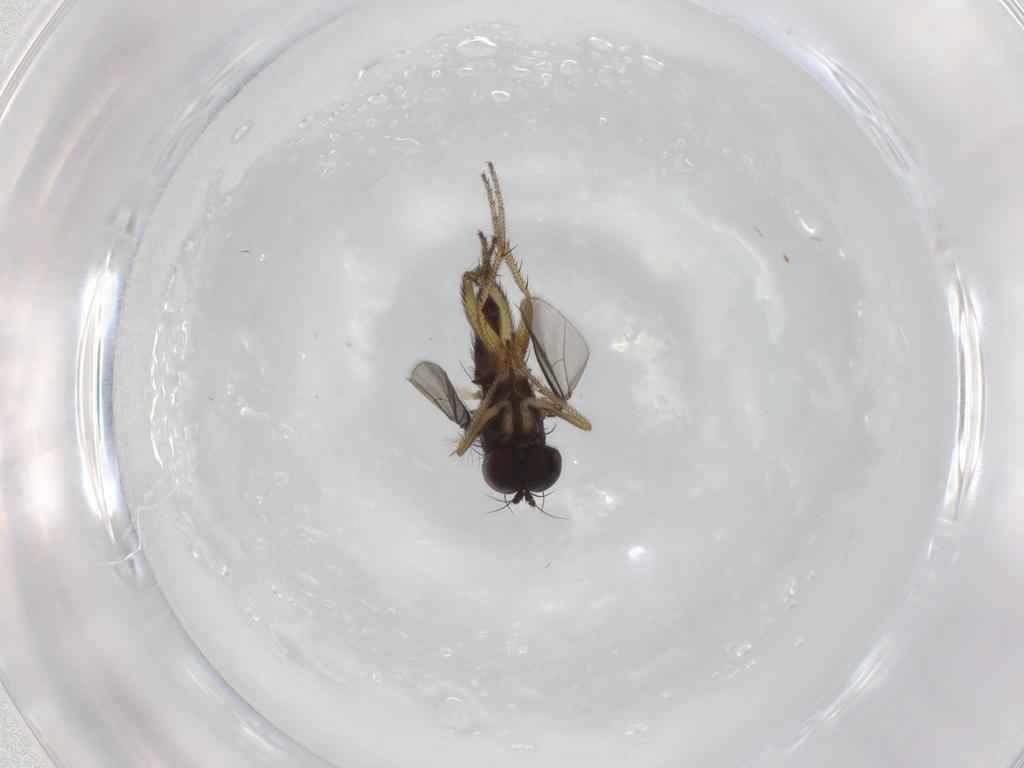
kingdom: Animalia
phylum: Arthropoda
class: Insecta
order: Diptera
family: Dolichopodidae
